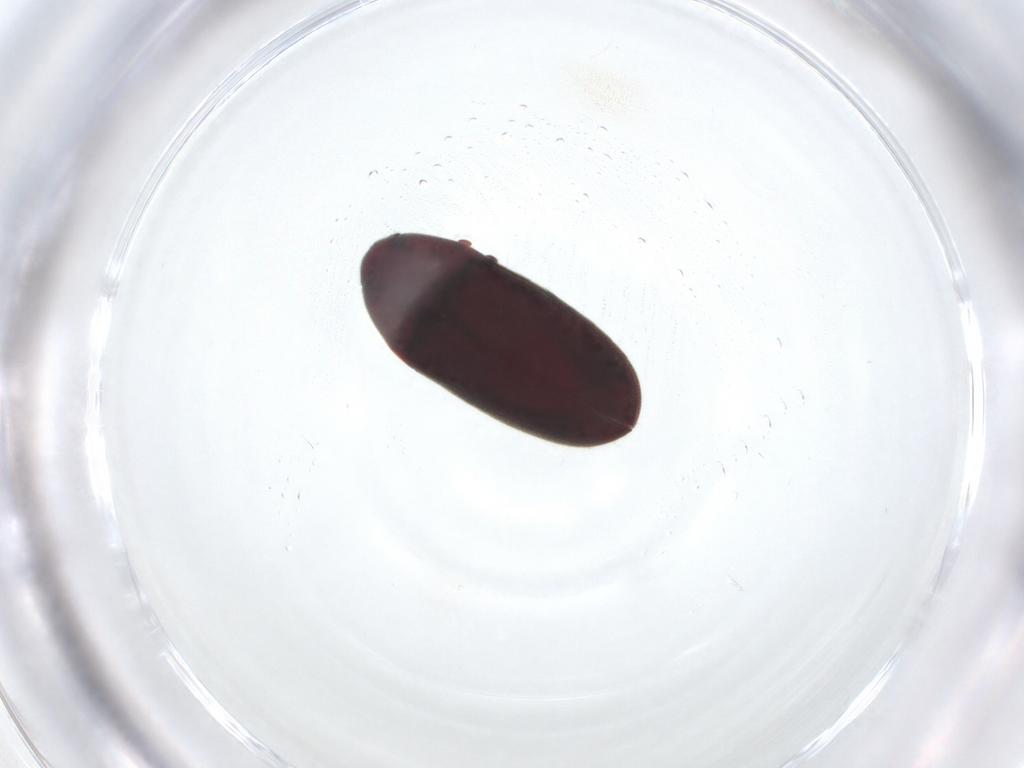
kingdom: Animalia
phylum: Arthropoda
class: Insecta
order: Coleoptera
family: Throscidae
